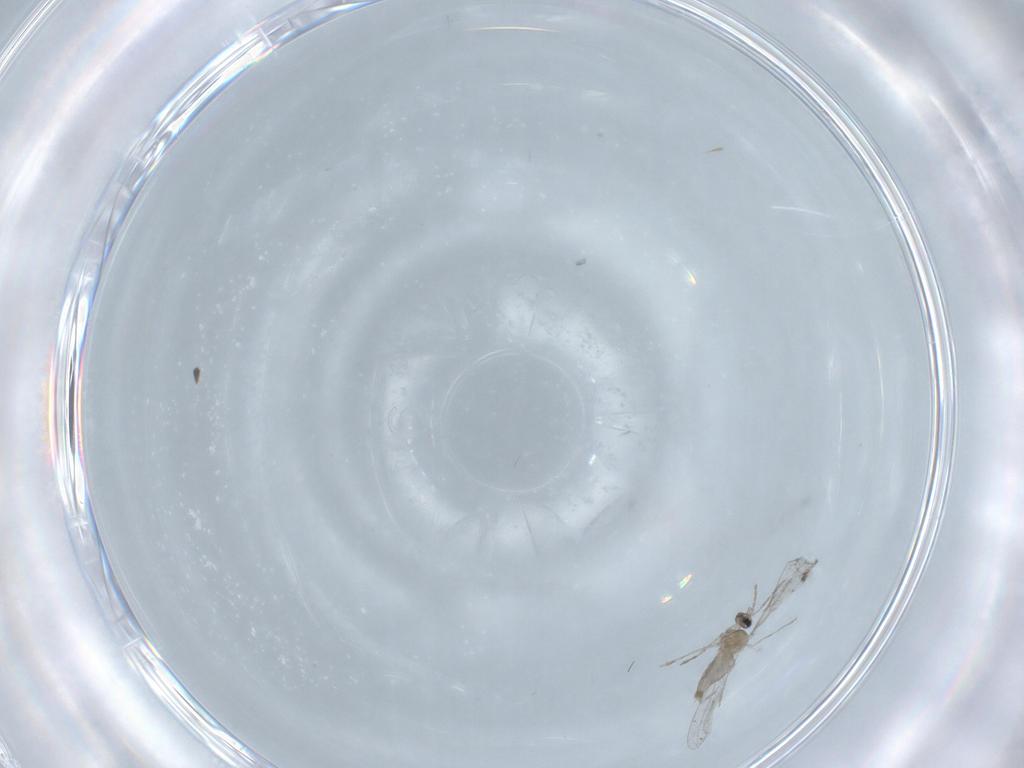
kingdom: Animalia
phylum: Arthropoda
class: Insecta
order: Diptera
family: Cecidomyiidae
